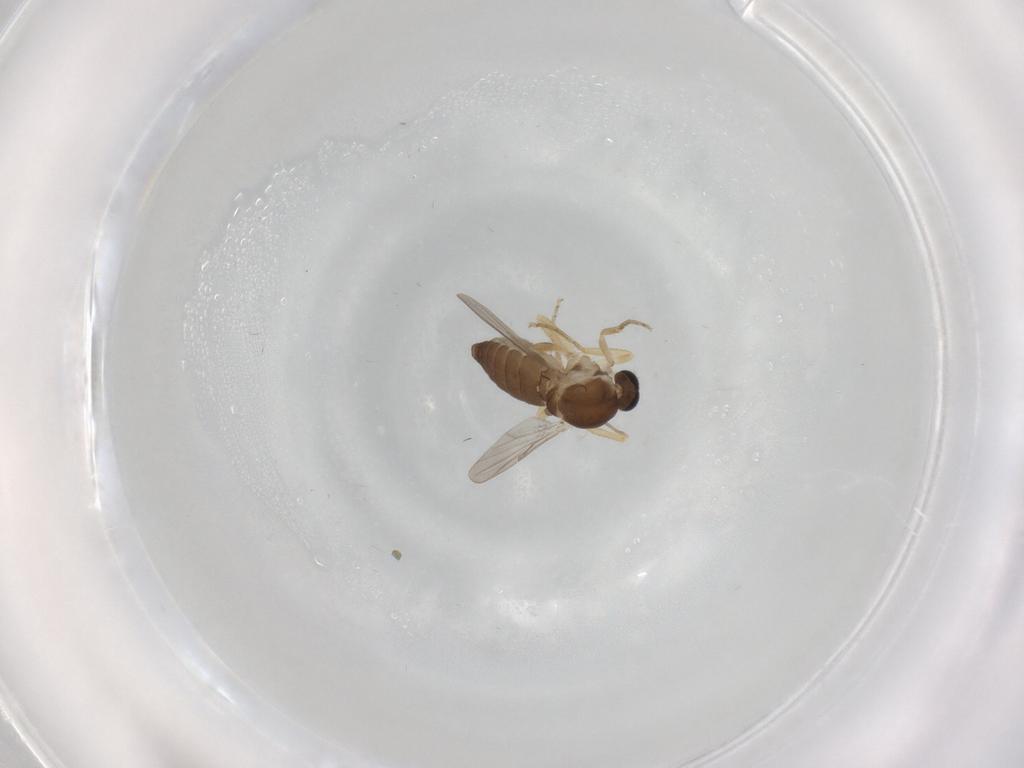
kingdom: Animalia
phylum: Arthropoda
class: Insecta
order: Diptera
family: Ceratopogonidae
